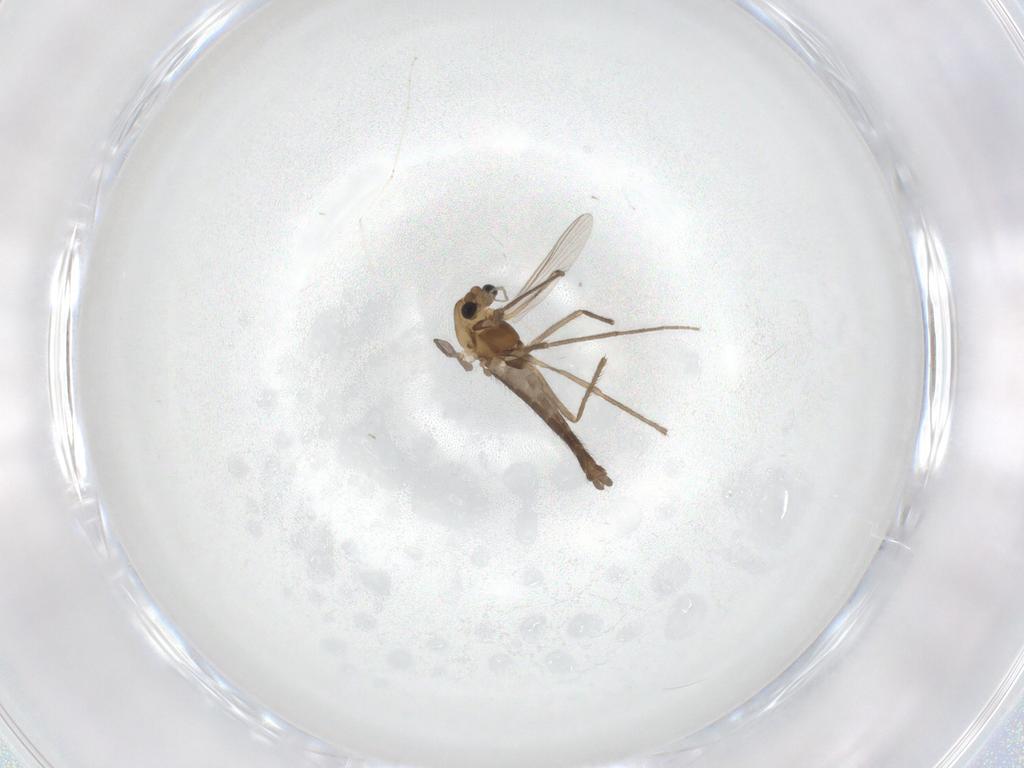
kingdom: Animalia
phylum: Arthropoda
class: Insecta
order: Diptera
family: Chironomidae
